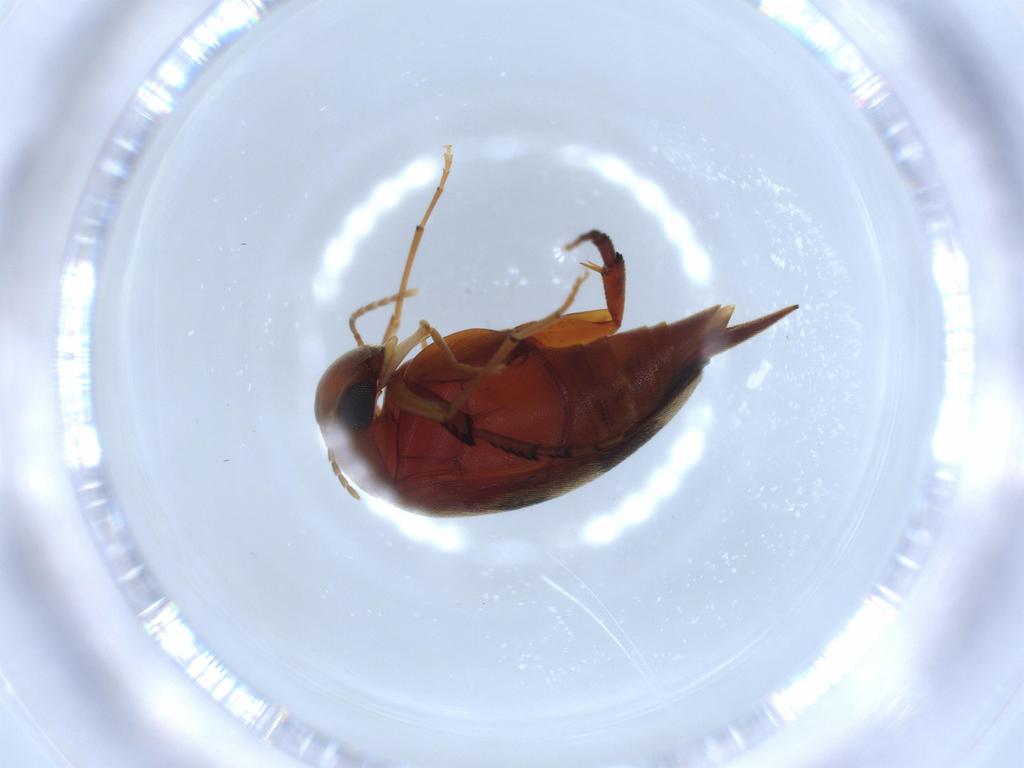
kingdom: Animalia
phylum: Arthropoda
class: Insecta
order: Coleoptera
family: Mordellidae
